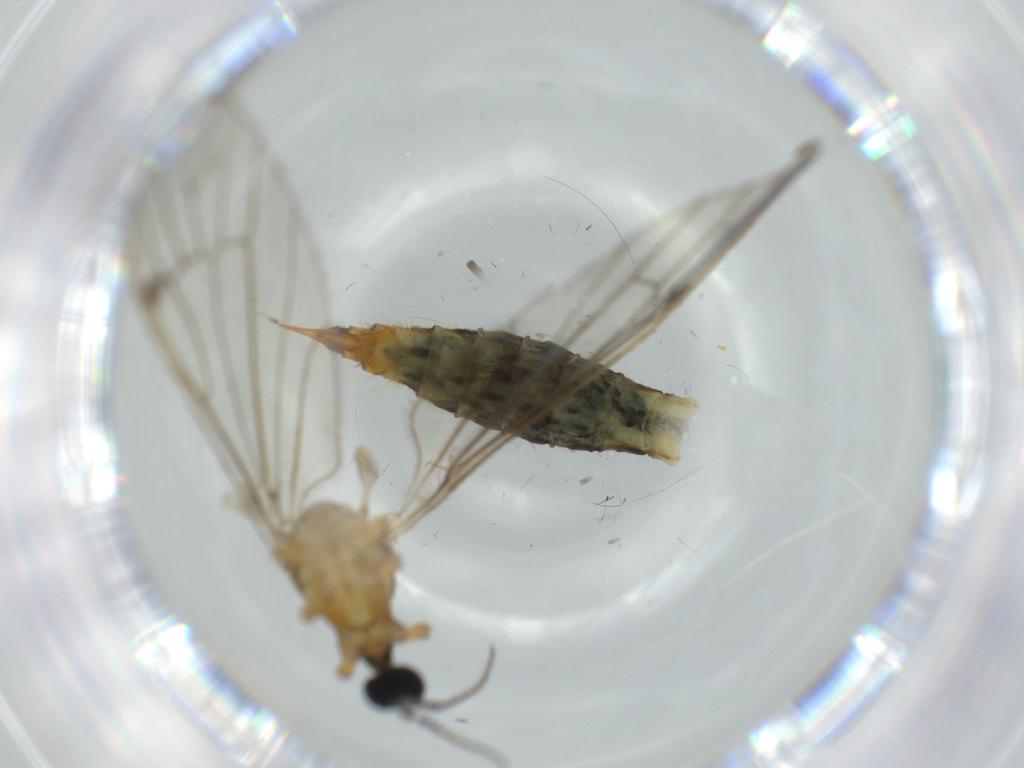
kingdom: Animalia
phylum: Arthropoda
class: Insecta
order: Diptera
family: Limoniidae
